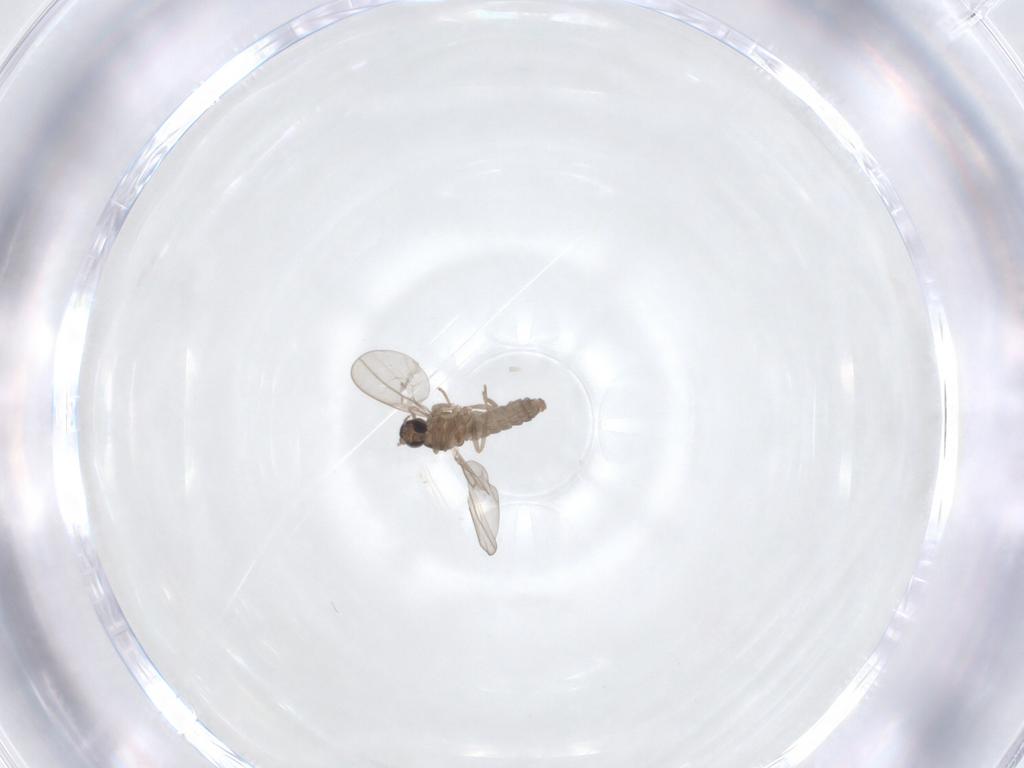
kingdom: Animalia
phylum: Arthropoda
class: Insecta
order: Diptera
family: Cecidomyiidae
